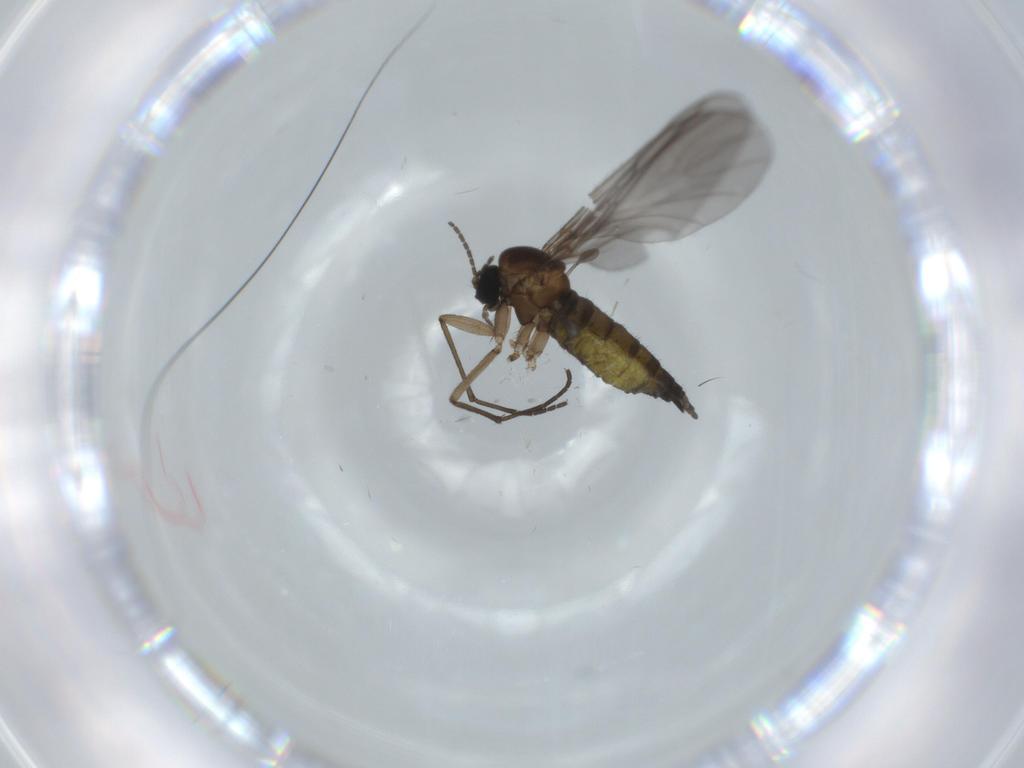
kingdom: Animalia
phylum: Arthropoda
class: Insecta
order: Diptera
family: Sciaridae
